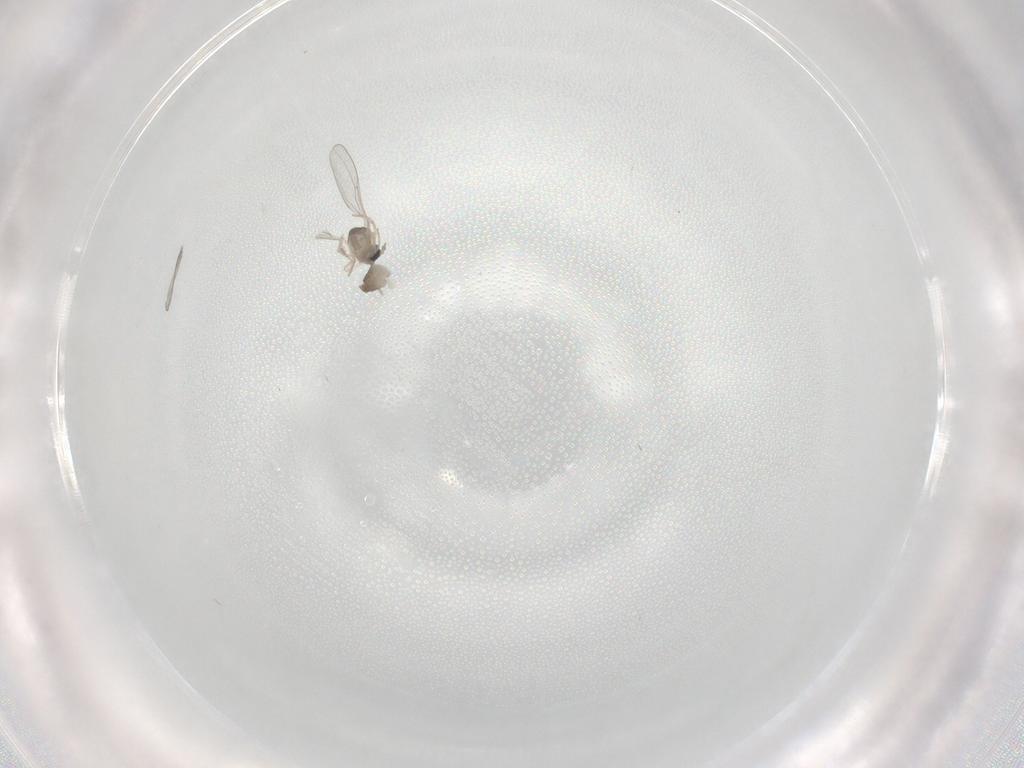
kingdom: Animalia
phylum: Arthropoda
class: Insecta
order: Diptera
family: Cecidomyiidae
